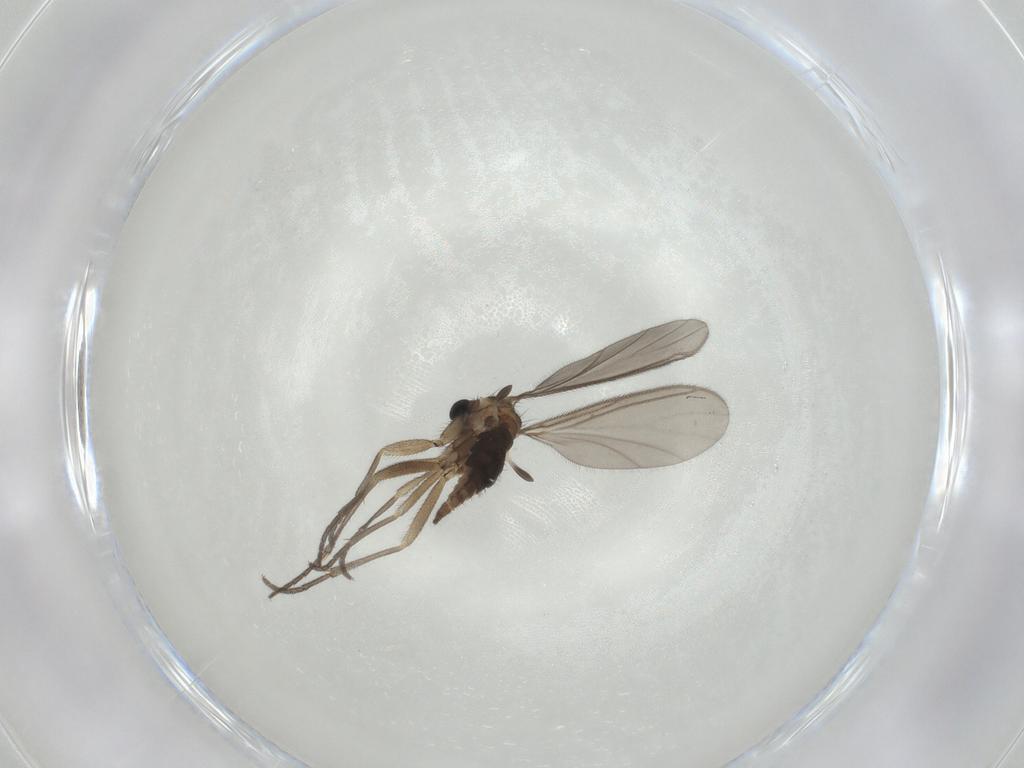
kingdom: Animalia
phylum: Arthropoda
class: Insecta
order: Diptera
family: Sciaridae
